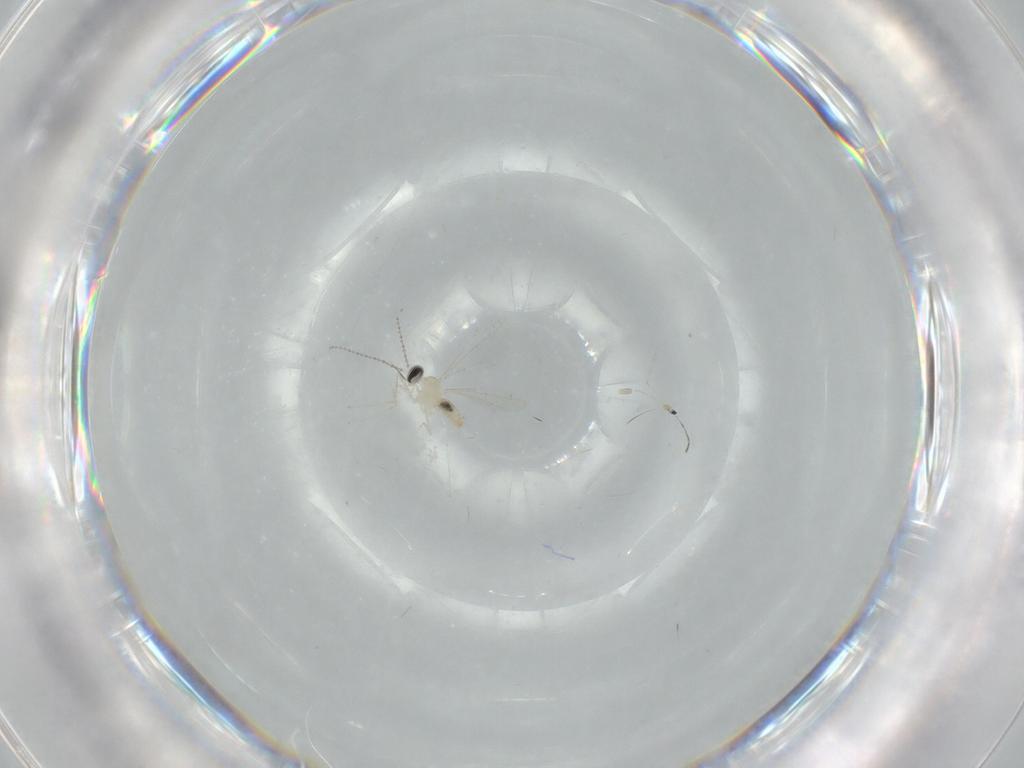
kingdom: Animalia
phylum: Arthropoda
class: Insecta
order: Diptera
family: Cecidomyiidae
